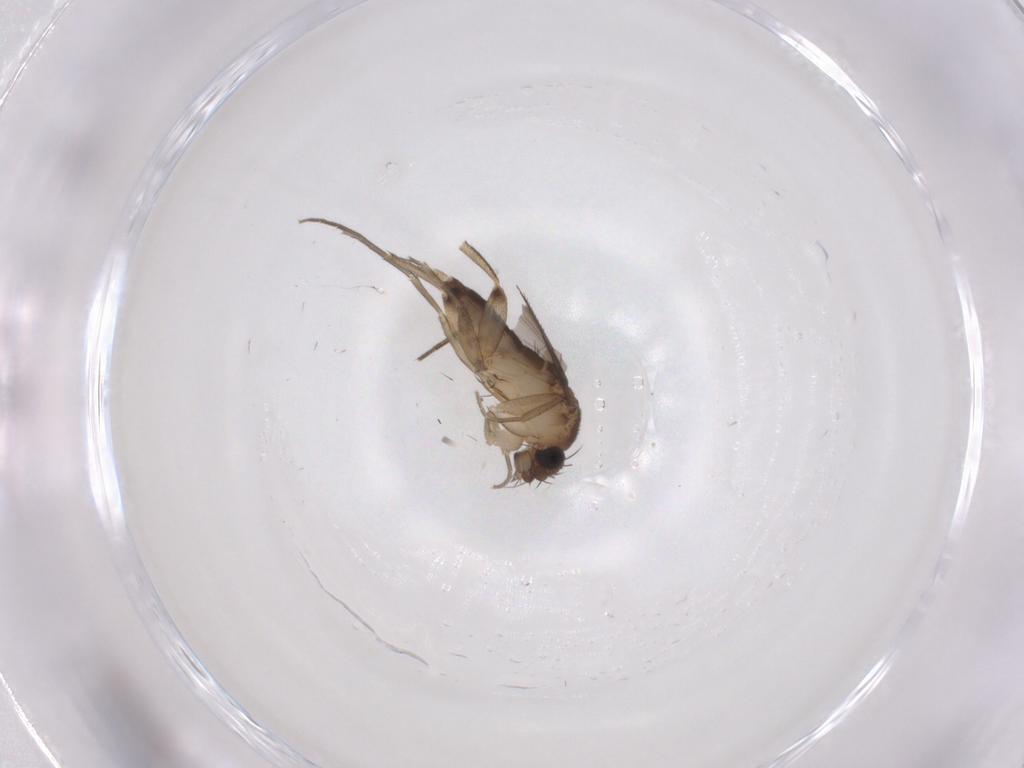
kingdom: Animalia
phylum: Arthropoda
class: Insecta
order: Diptera
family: Phoridae
